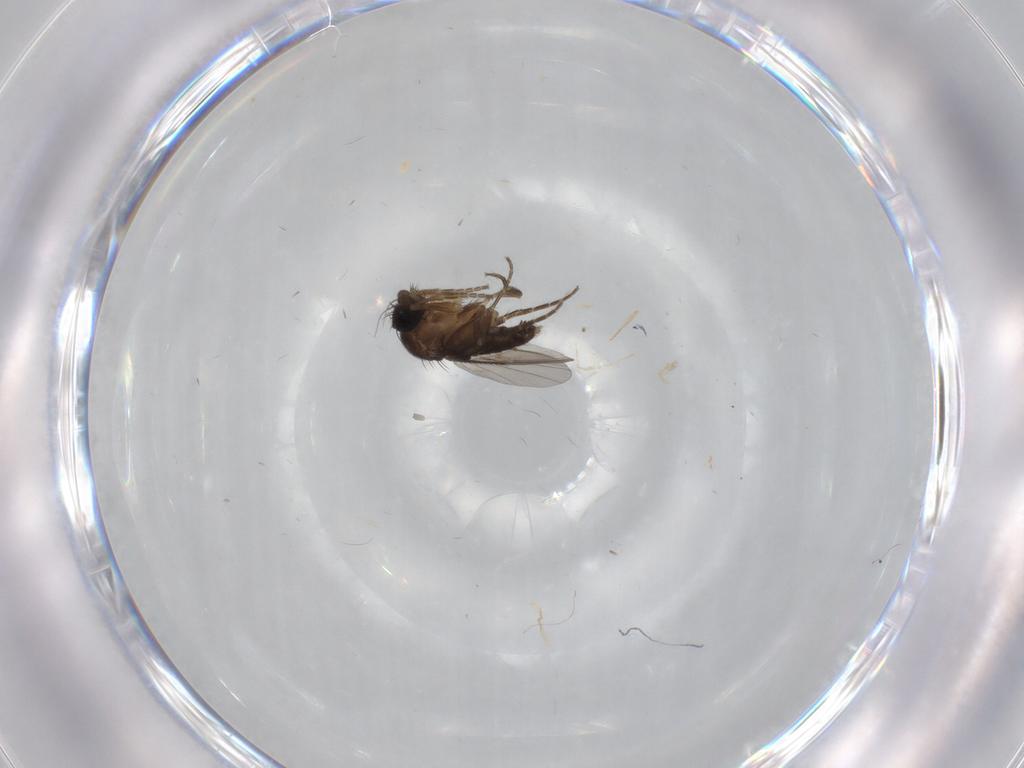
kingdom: Animalia
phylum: Arthropoda
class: Insecta
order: Diptera
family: Phoridae
